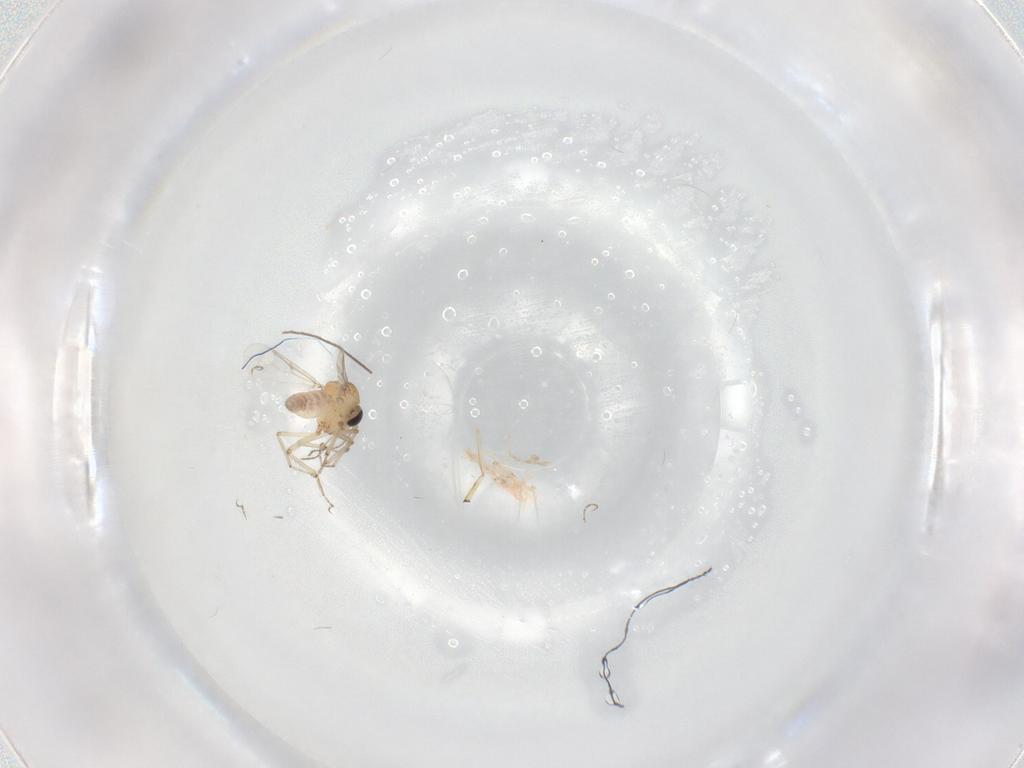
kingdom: Animalia
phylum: Arthropoda
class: Insecta
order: Diptera
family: Ceratopogonidae
